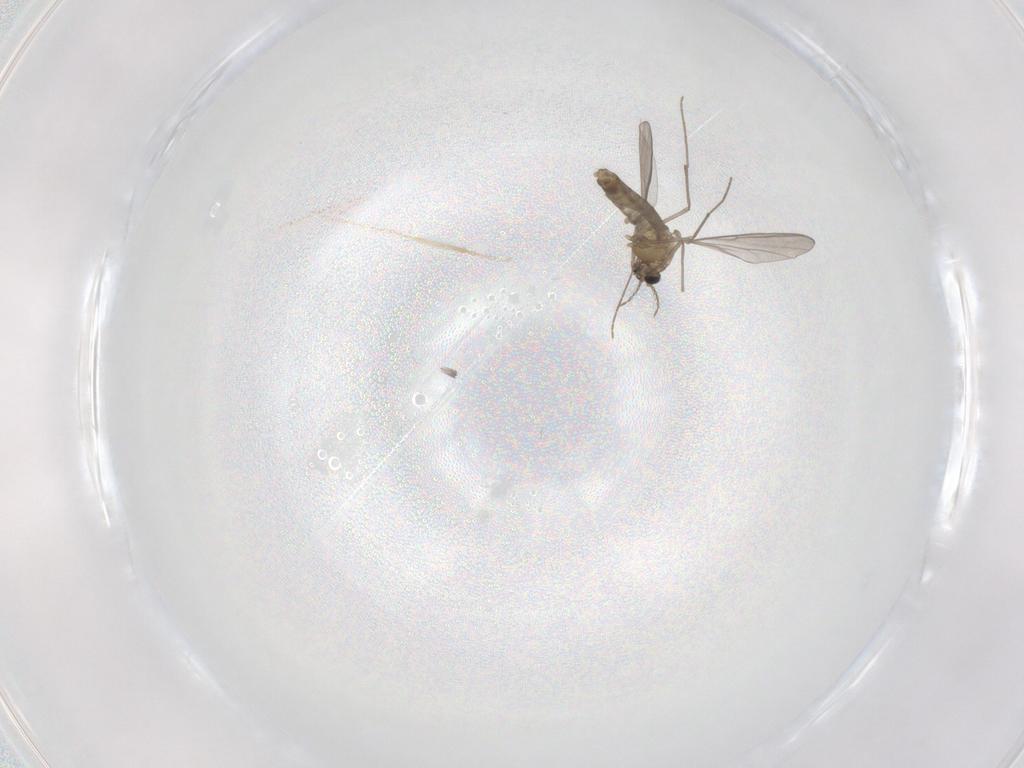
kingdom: Animalia
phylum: Arthropoda
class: Insecta
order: Diptera
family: Chironomidae
